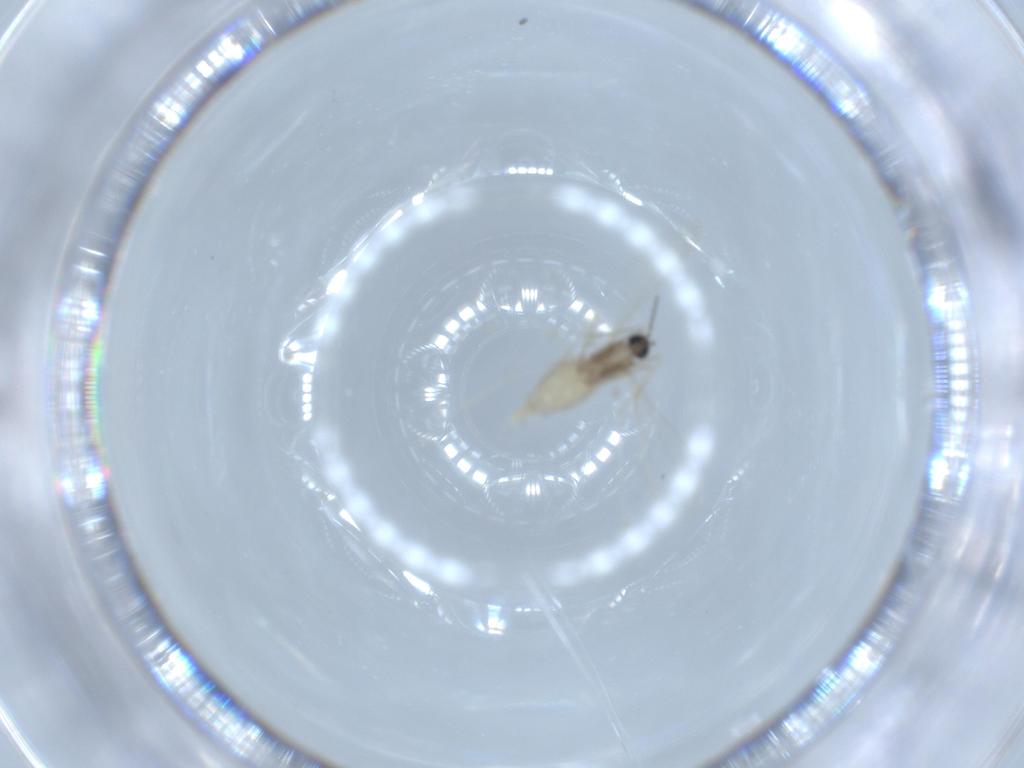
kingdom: Animalia
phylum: Arthropoda
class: Insecta
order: Diptera
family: Cecidomyiidae
